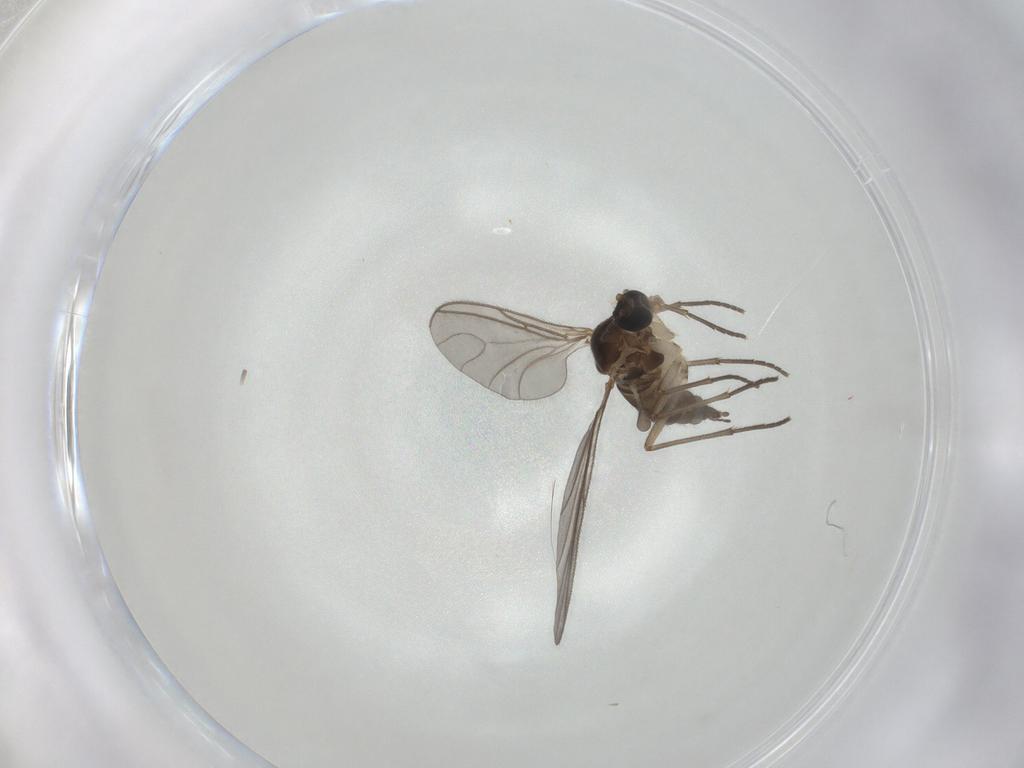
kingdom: Animalia
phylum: Arthropoda
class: Insecta
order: Diptera
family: Sciaridae
